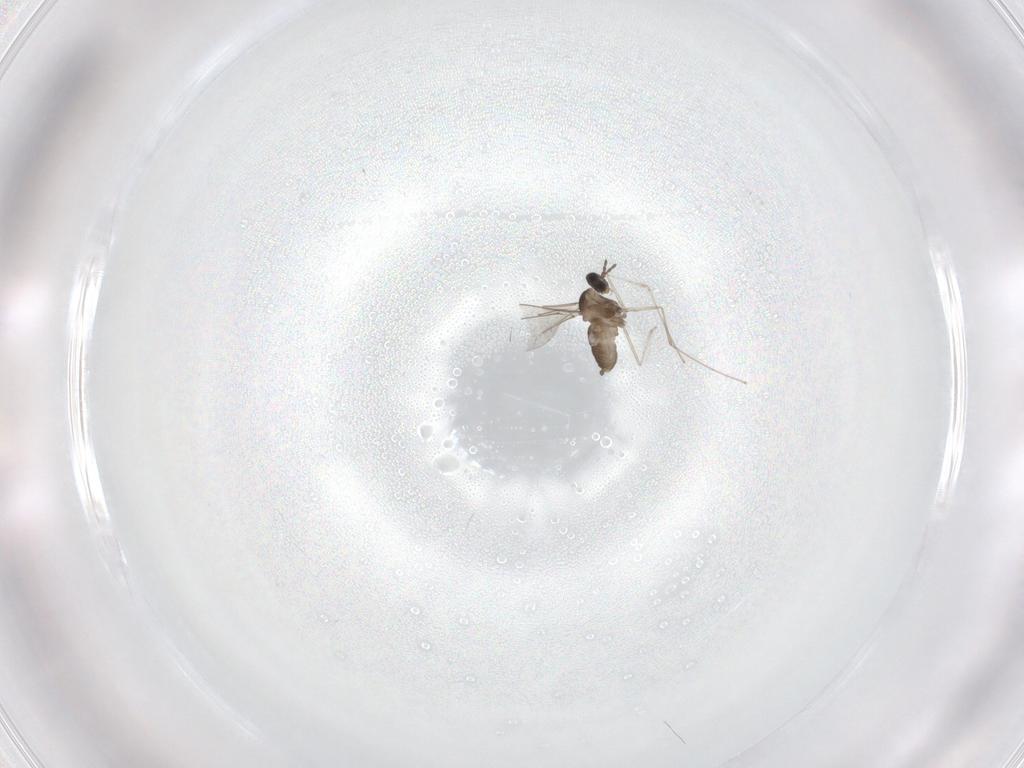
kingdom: Animalia
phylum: Arthropoda
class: Insecta
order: Diptera
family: Cecidomyiidae
